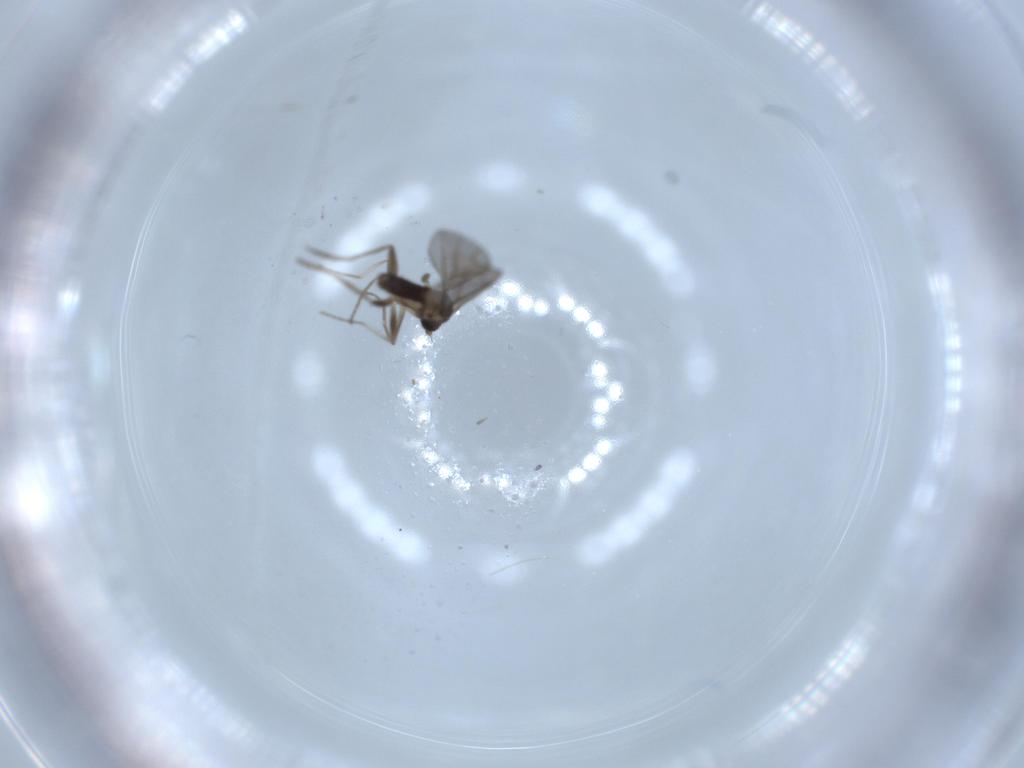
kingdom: Animalia
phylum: Arthropoda
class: Insecta
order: Diptera
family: Phoridae
